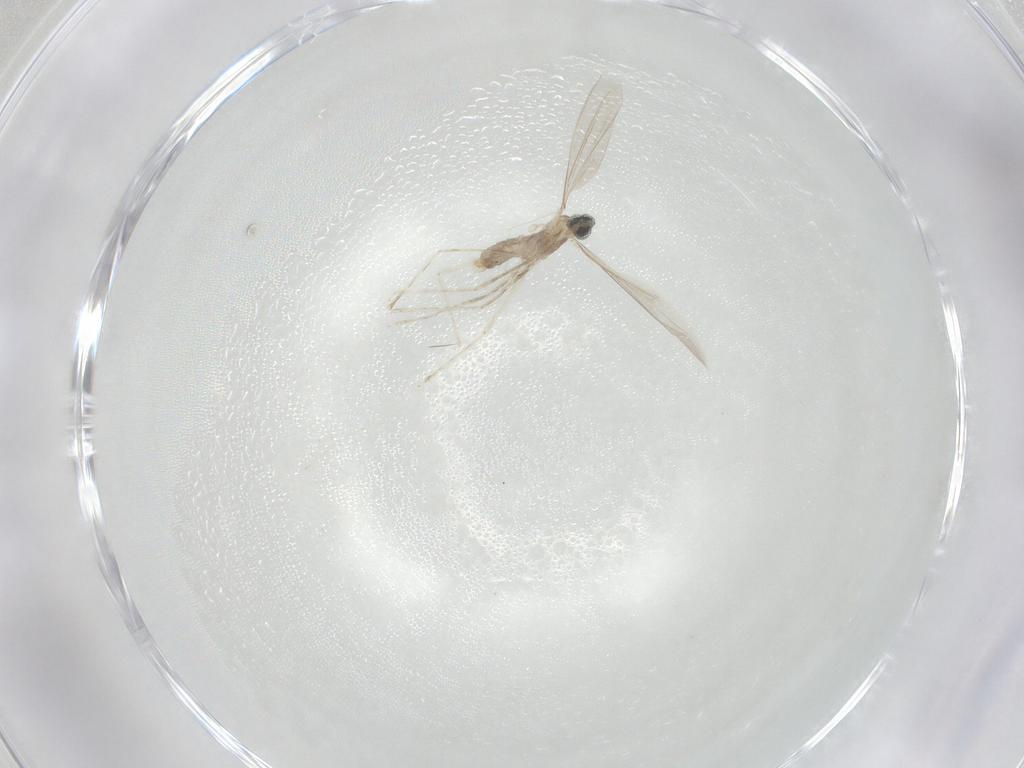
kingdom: Animalia
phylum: Arthropoda
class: Insecta
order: Diptera
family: Cecidomyiidae
